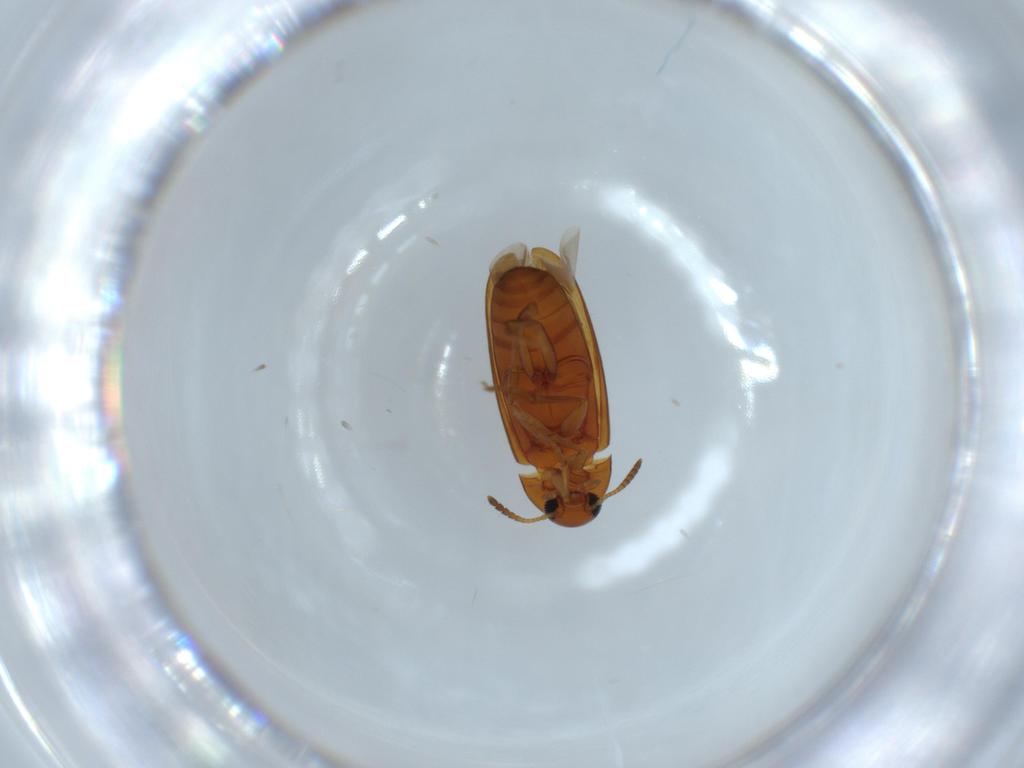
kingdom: Animalia
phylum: Arthropoda
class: Insecta
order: Coleoptera
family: Scraptiidae
